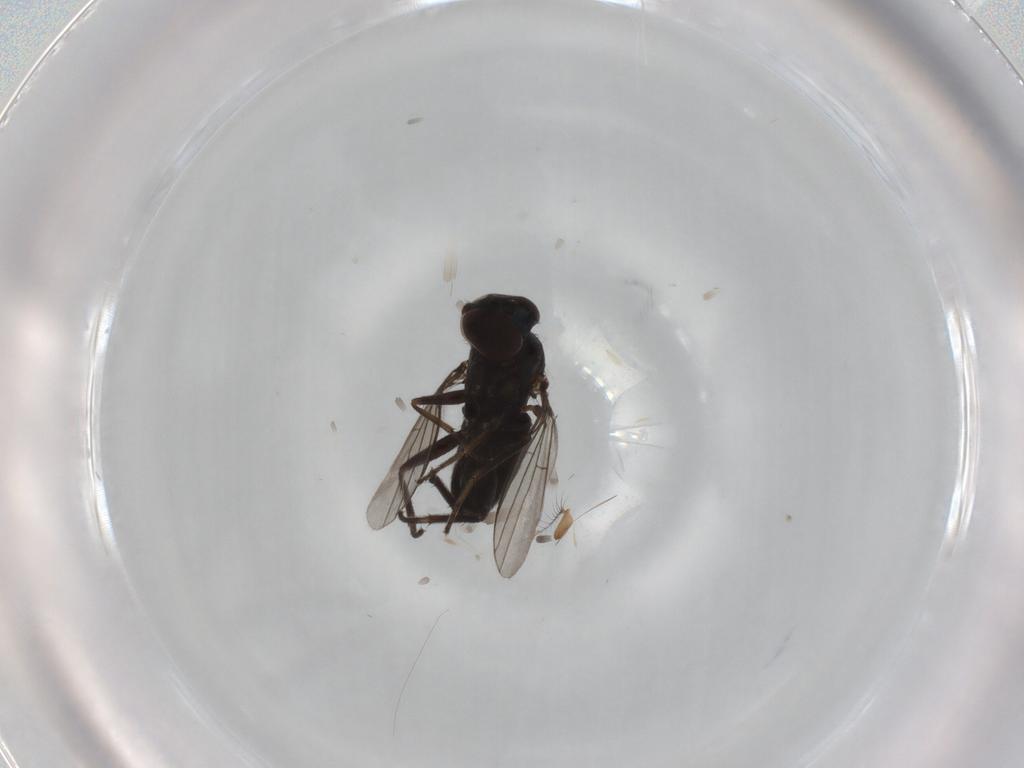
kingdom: Animalia
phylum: Arthropoda
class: Insecta
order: Diptera
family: Dolichopodidae
